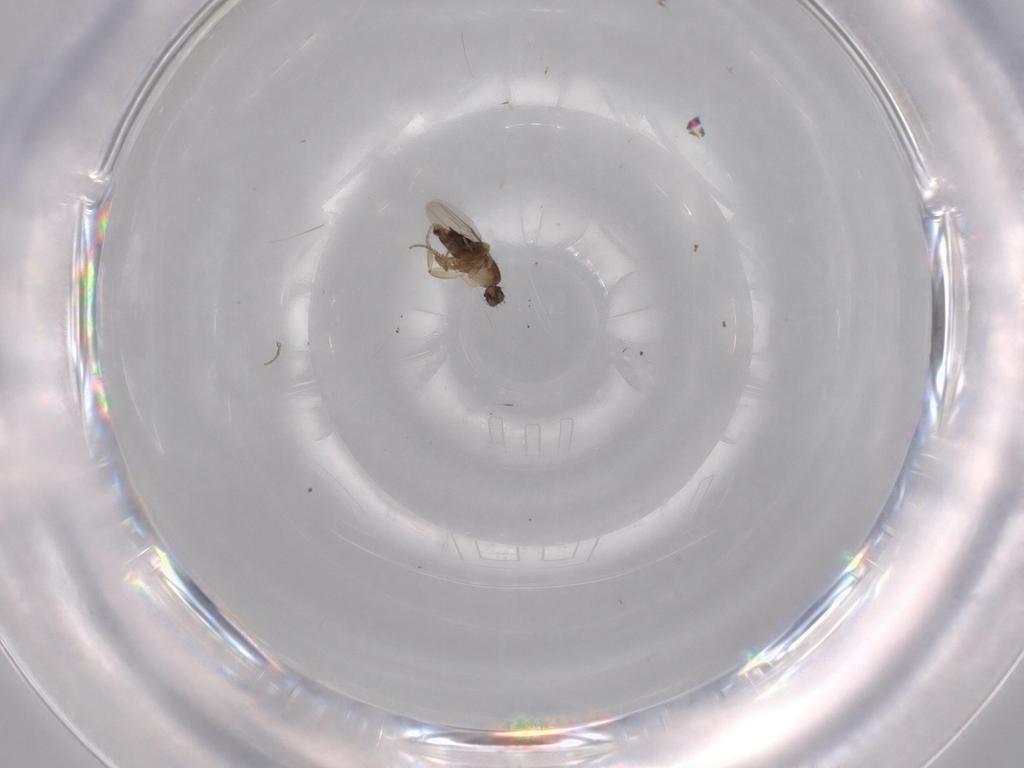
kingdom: Animalia
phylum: Arthropoda
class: Insecta
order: Diptera
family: Phoridae
